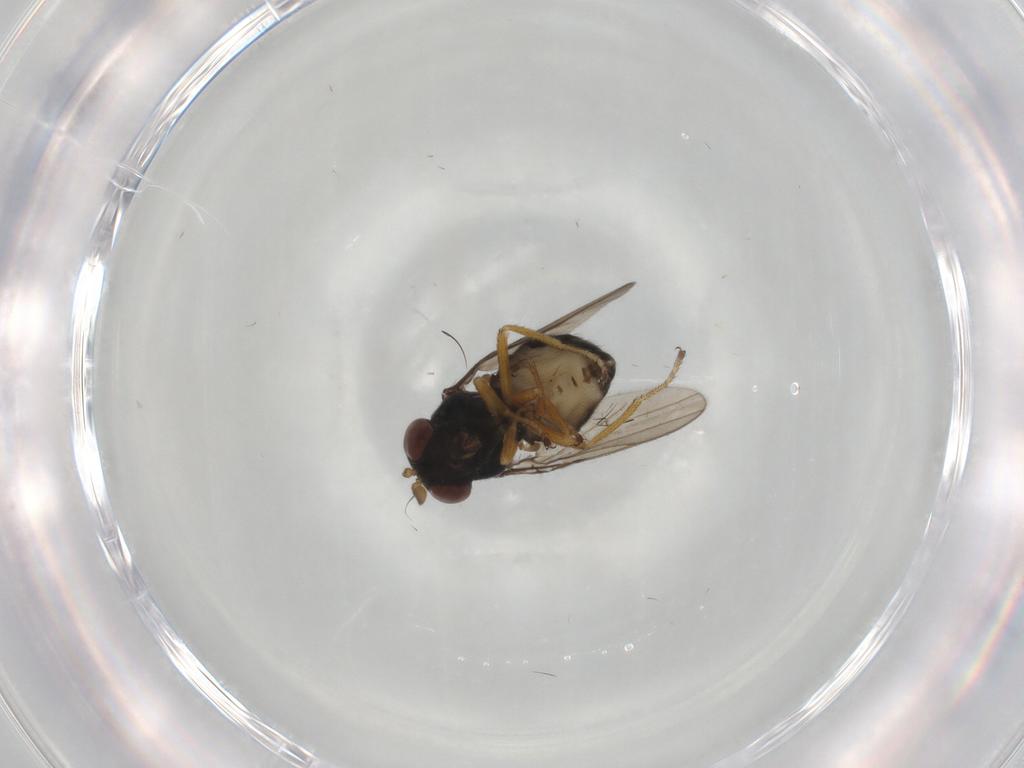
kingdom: Animalia
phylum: Arthropoda
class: Insecta
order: Diptera
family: Ephydridae
